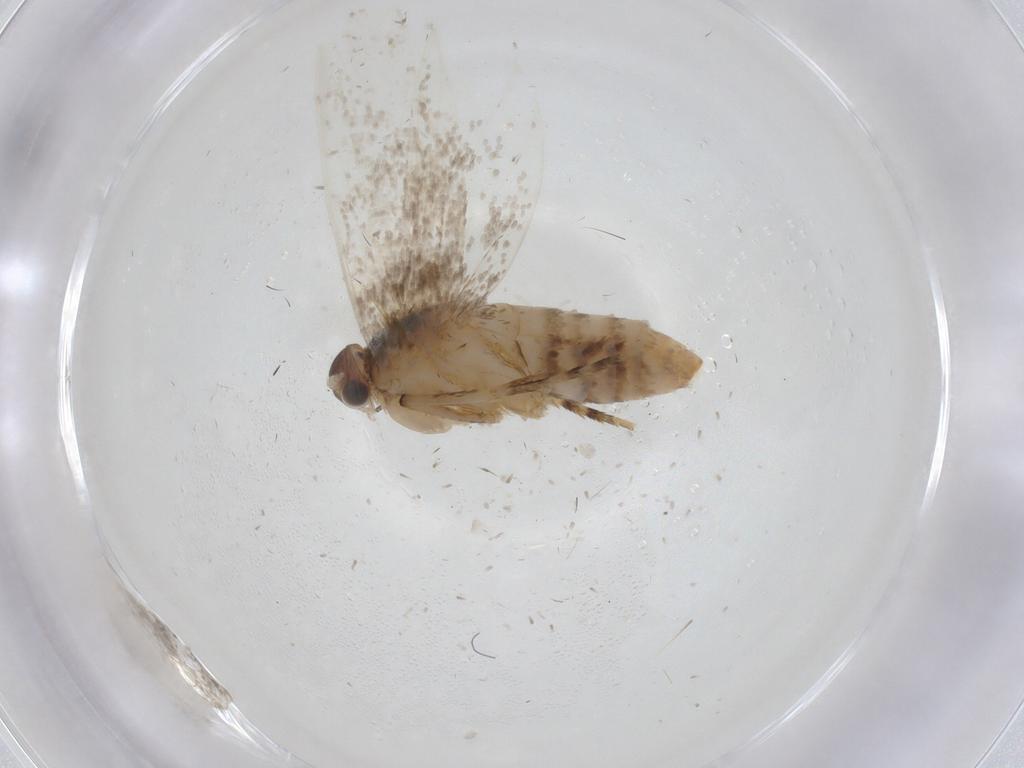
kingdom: Animalia
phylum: Arthropoda
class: Insecta
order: Lepidoptera
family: Dryadaulidae
